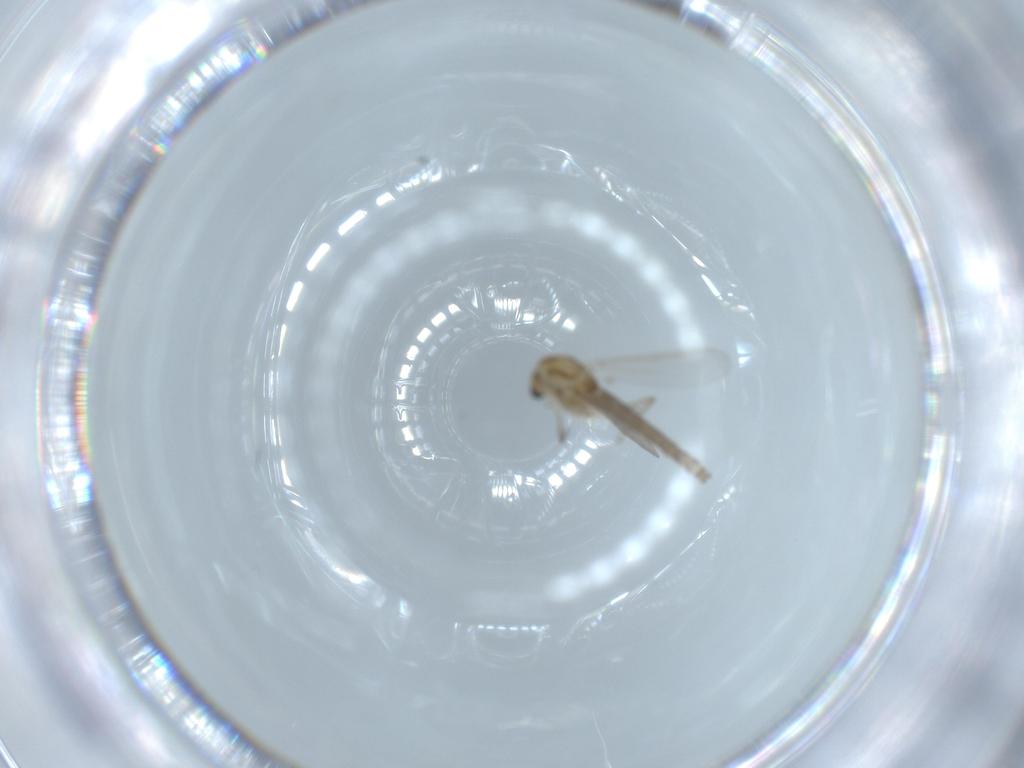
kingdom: Animalia
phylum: Arthropoda
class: Insecta
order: Diptera
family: Chironomidae
